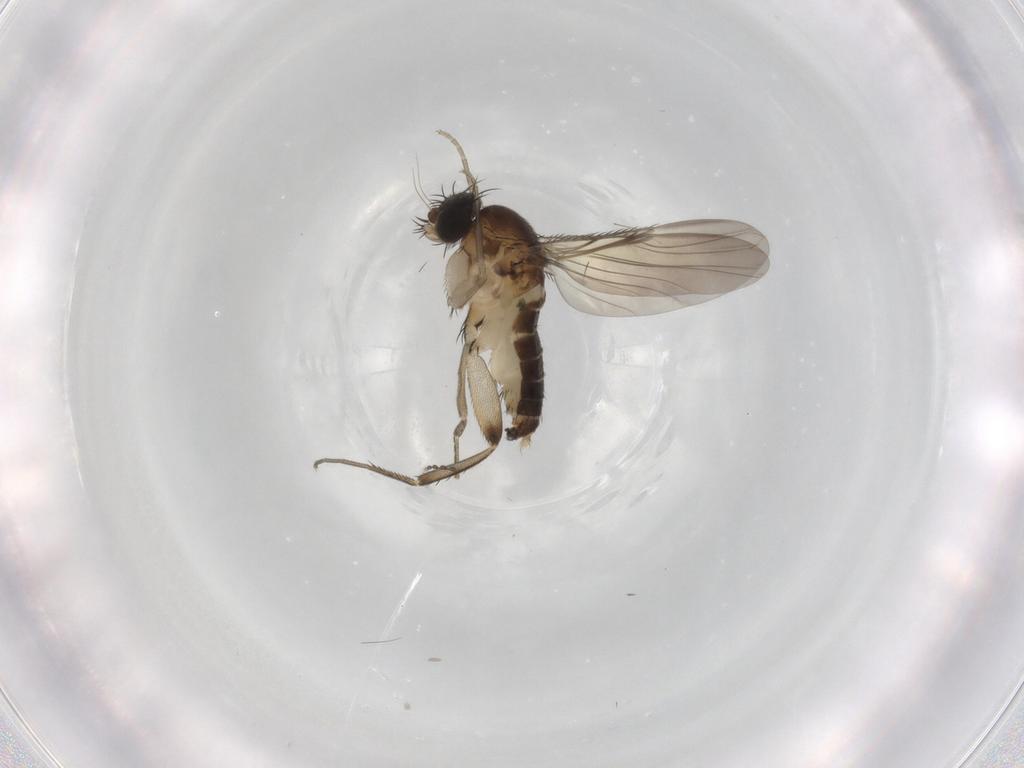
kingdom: Animalia
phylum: Arthropoda
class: Insecta
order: Diptera
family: Phoridae
